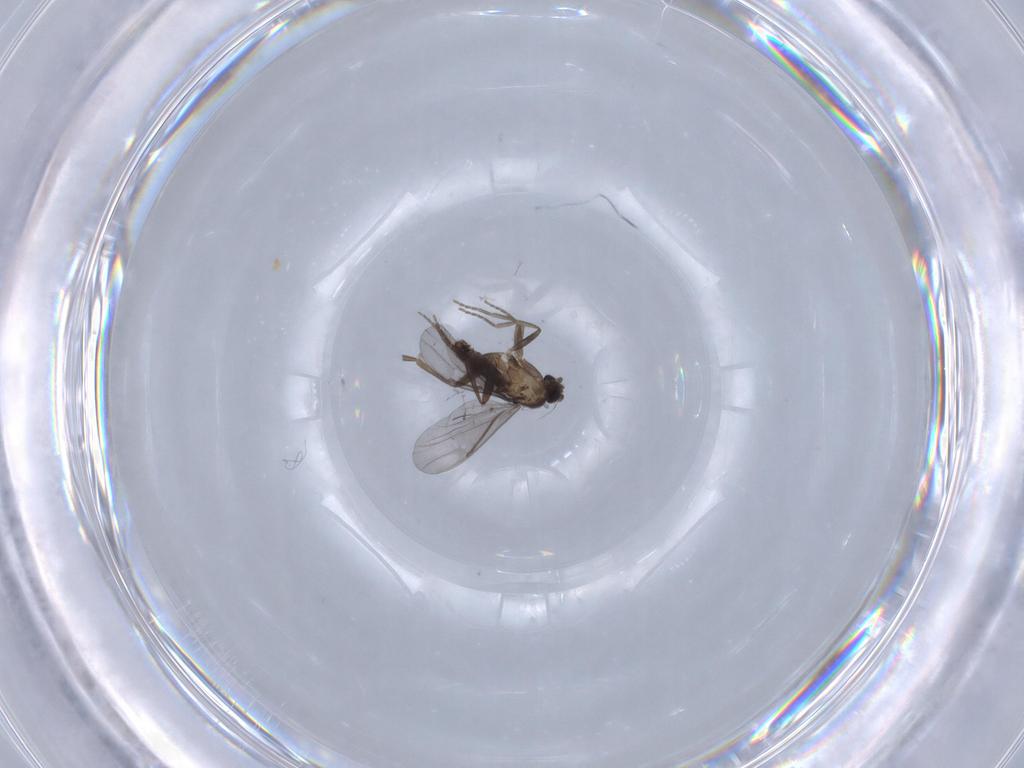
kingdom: Animalia
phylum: Arthropoda
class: Insecta
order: Diptera
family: Phoridae
